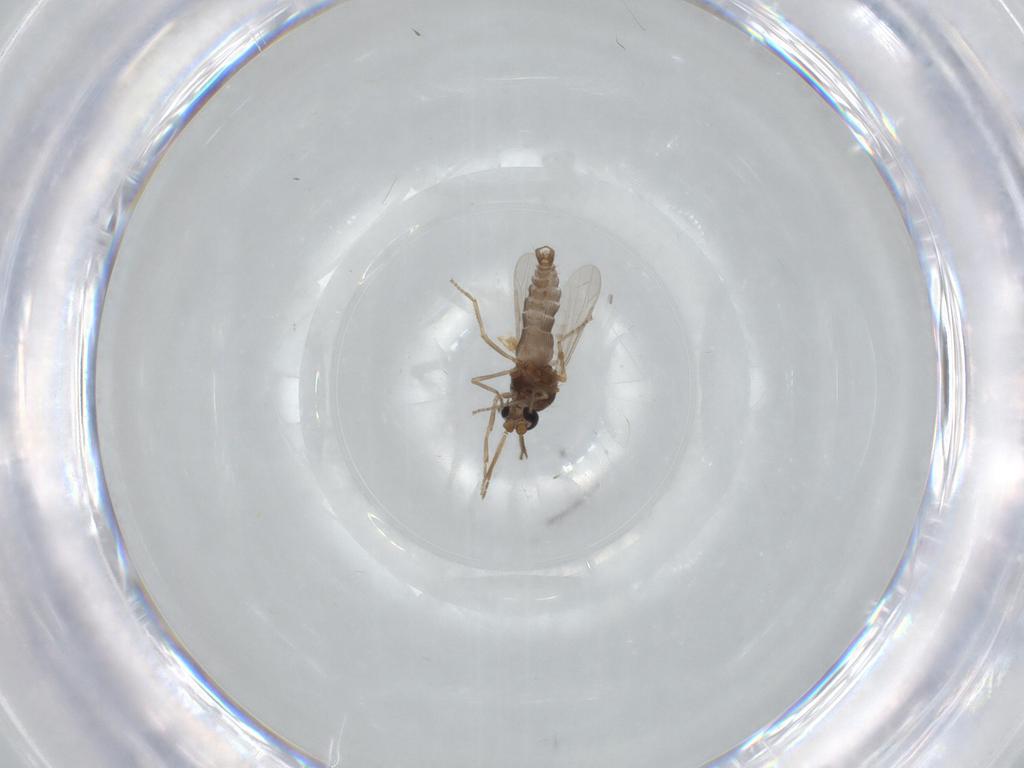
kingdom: Animalia
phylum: Arthropoda
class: Insecta
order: Diptera
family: Ceratopogonidae
